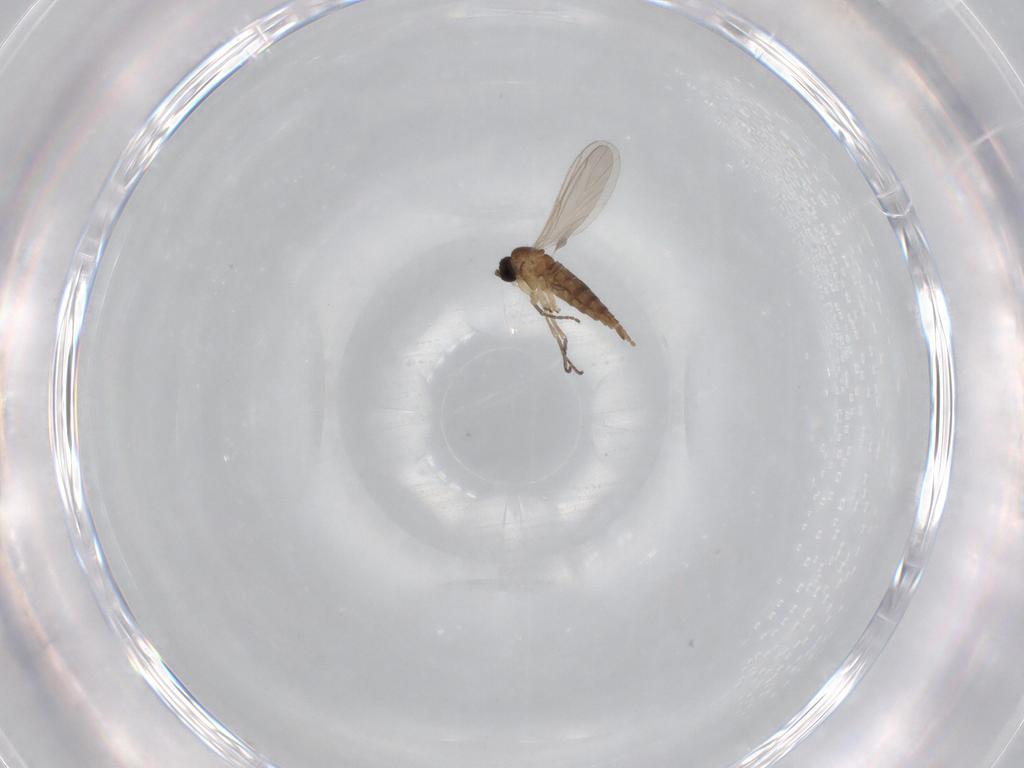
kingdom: Animalia
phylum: Arthropoda
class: Insecta
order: Diptera
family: Sciaridae
